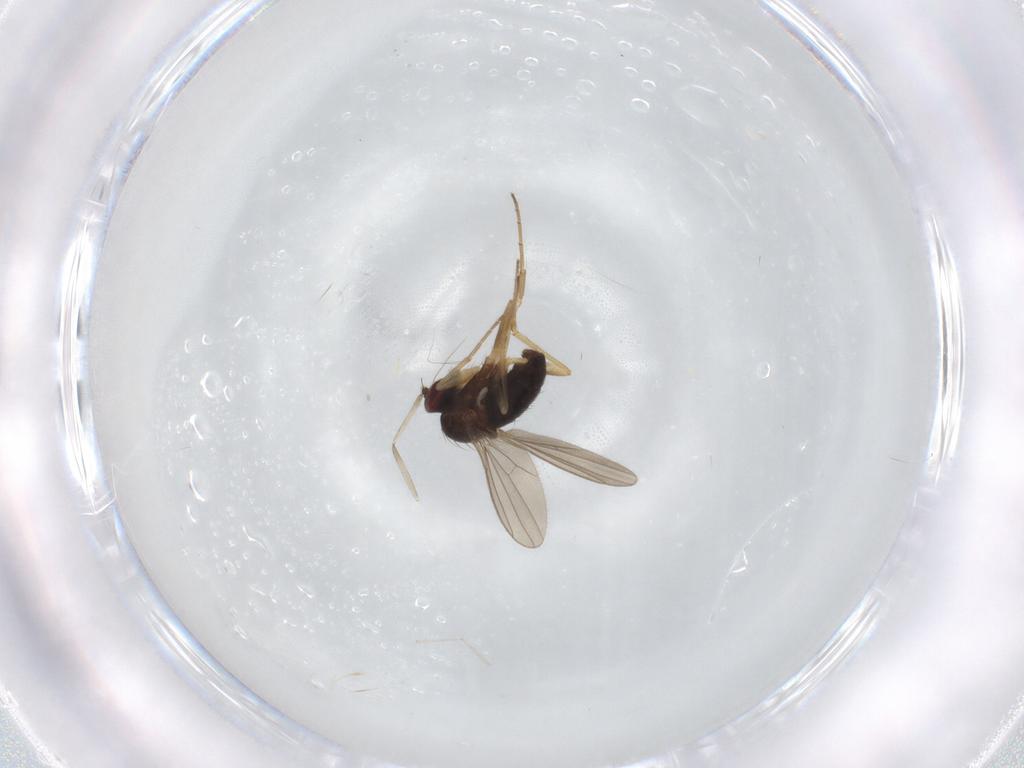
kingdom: Animalia
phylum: Arthropoda
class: Insecta
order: Diptera
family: Dolichopodidae
